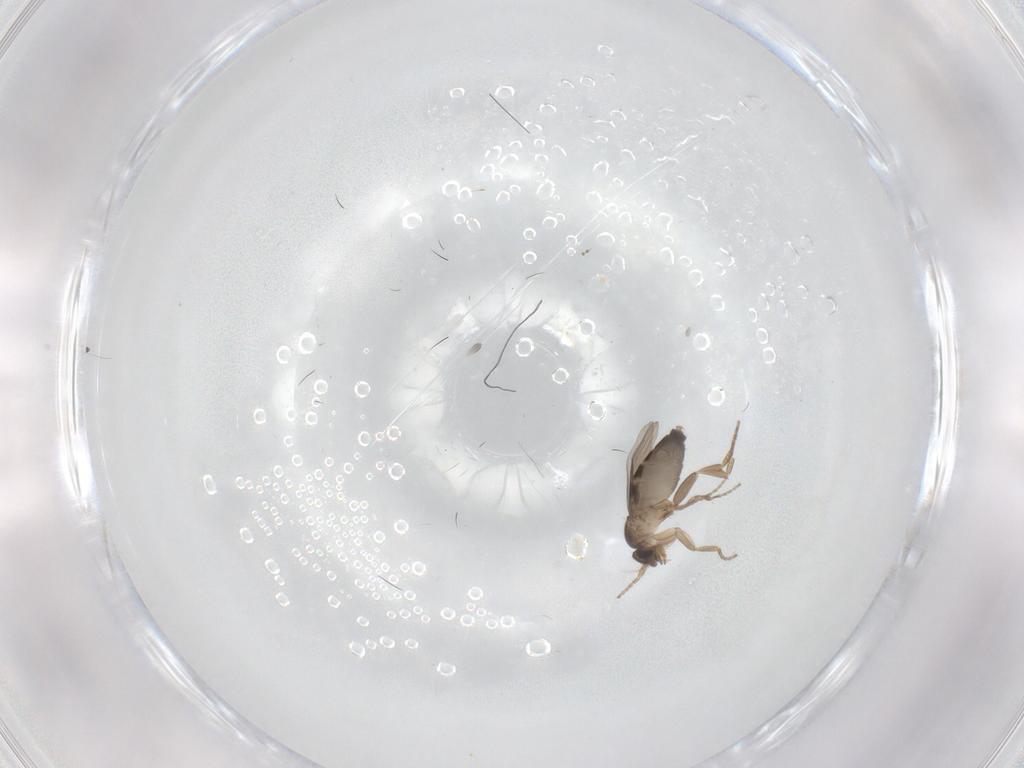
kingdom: Animalia
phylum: Arthropoda
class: Insecta
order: Diptera
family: Phoridae
